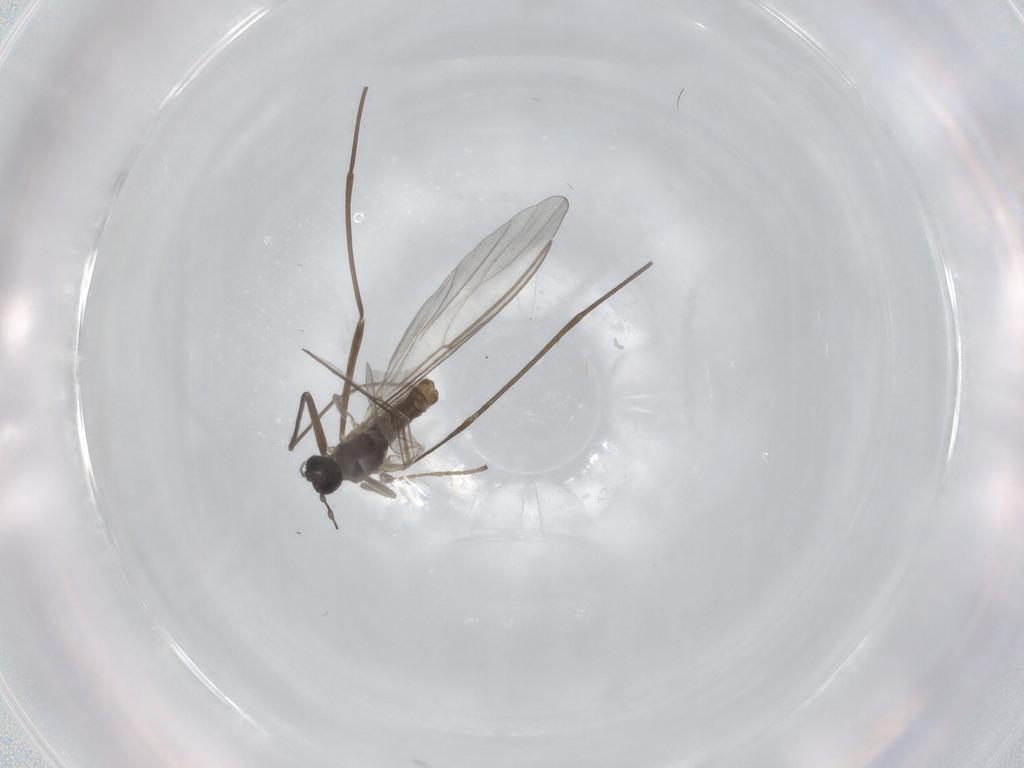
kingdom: Animalia
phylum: Arthropoda
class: Insecta
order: Diptera
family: Cecidomyiidae
